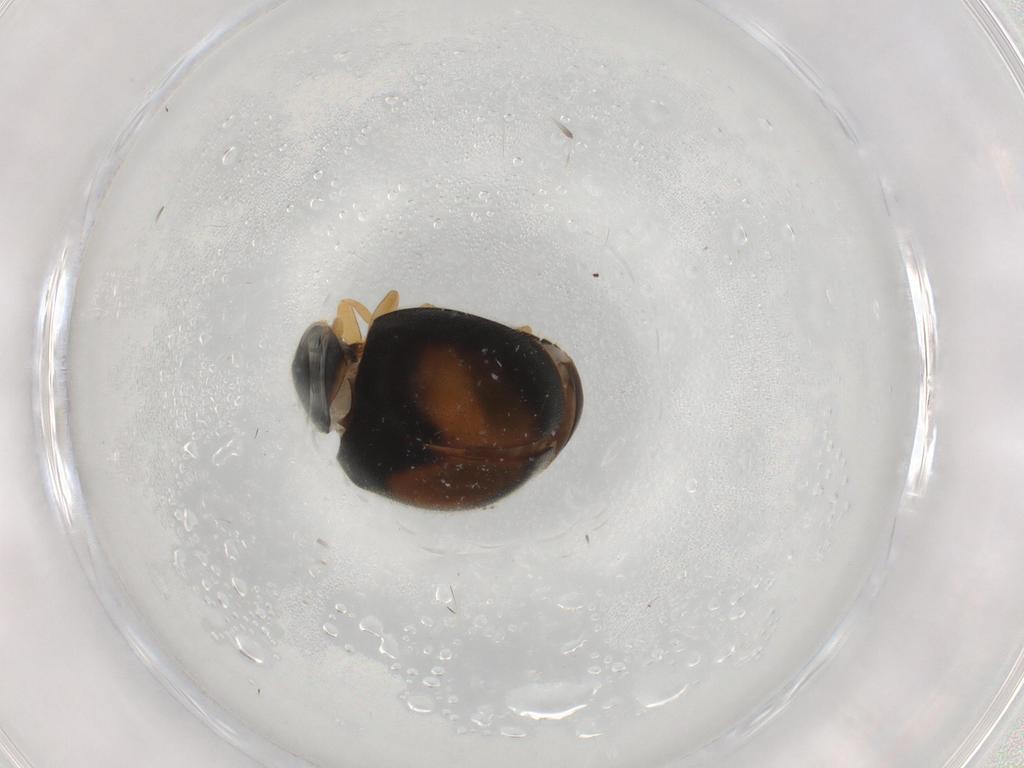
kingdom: Animalia
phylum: Arthropoda
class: Insecta
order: Coleoptera
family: Coccinellidae
